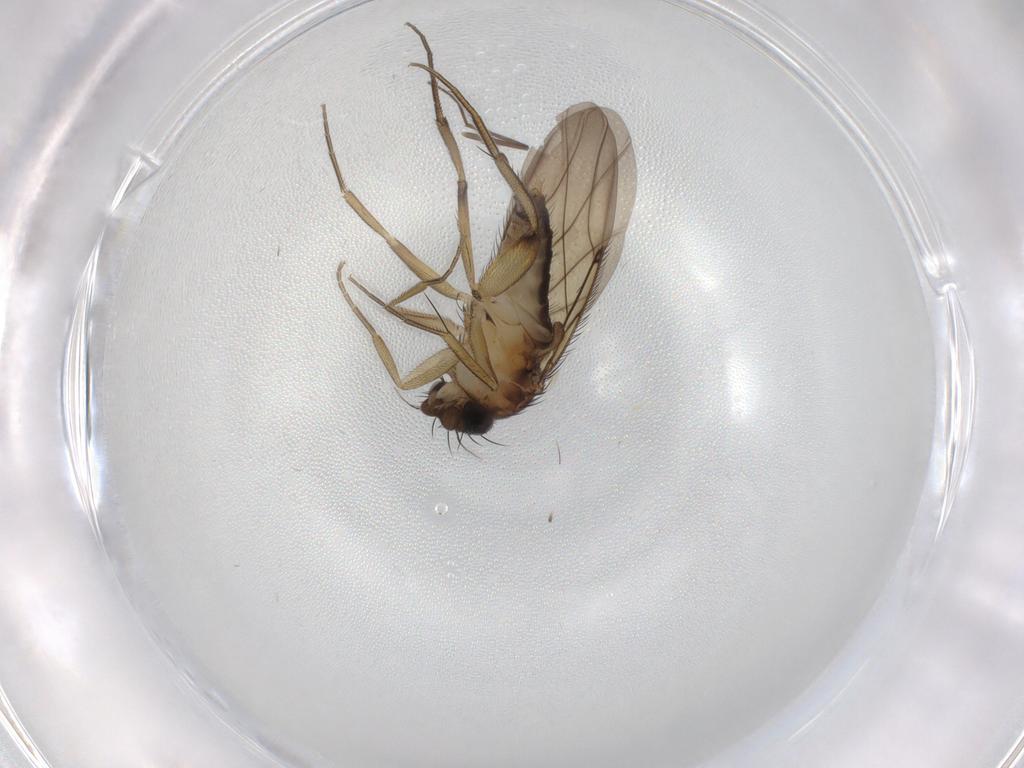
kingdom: Animalia
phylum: Arthropoda
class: Insecta
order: Diptera
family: Phoridae
